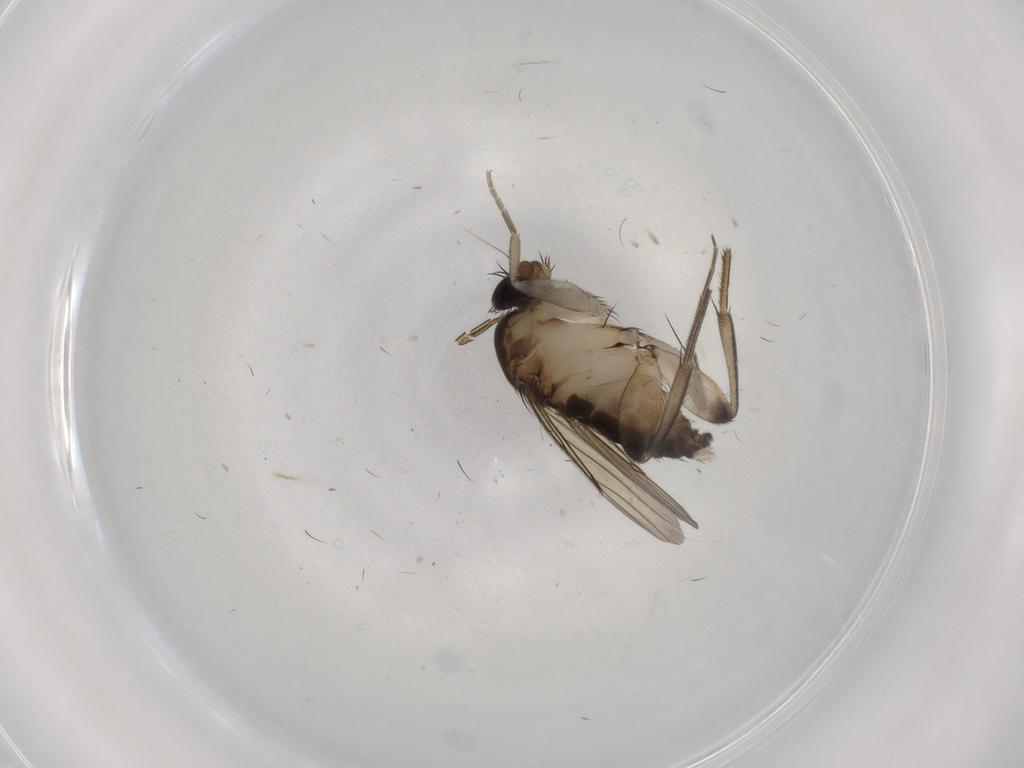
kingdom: Animalia
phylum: Arthropoda
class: Insecta
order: Diptera
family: Phoridae
